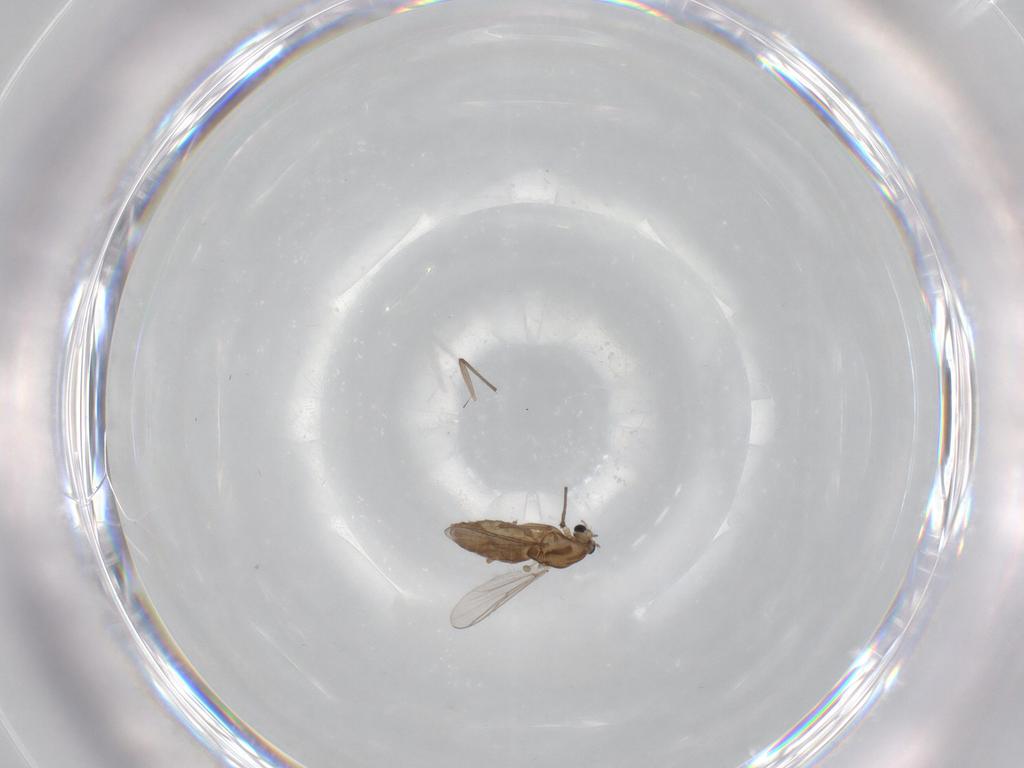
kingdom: Animalia
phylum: Arthropoda
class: Insecta
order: Diptera
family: Chironomidae
